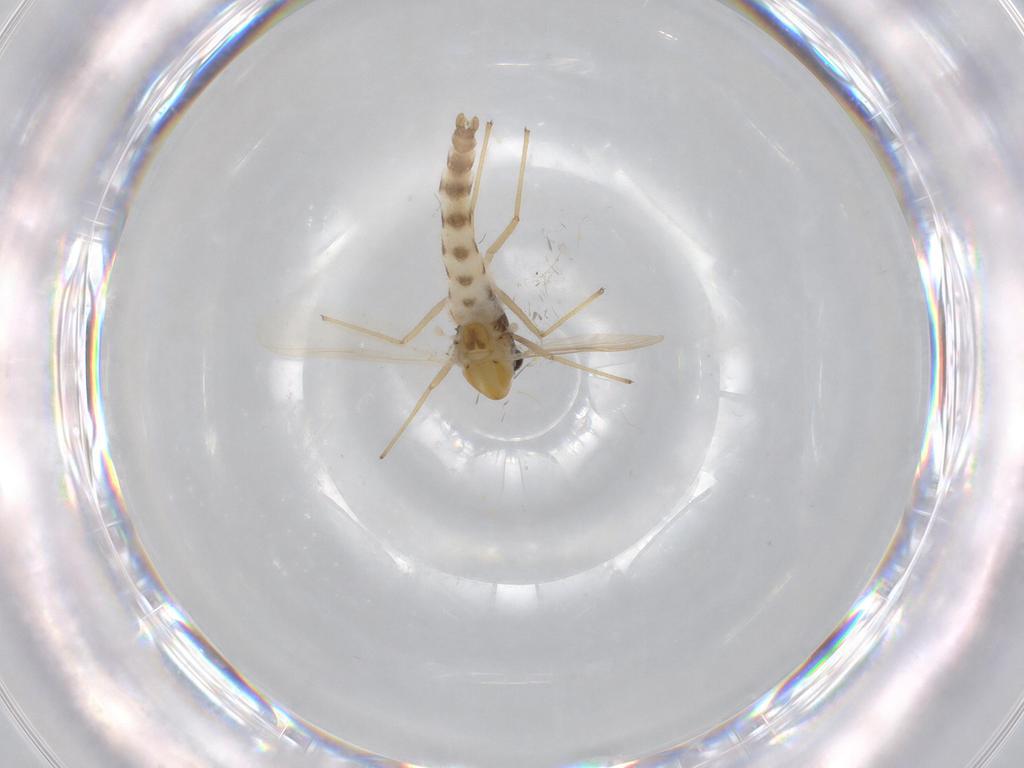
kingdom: Animalia
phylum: Arthropoda
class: Insecta
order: Diptera
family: Chironomidae
